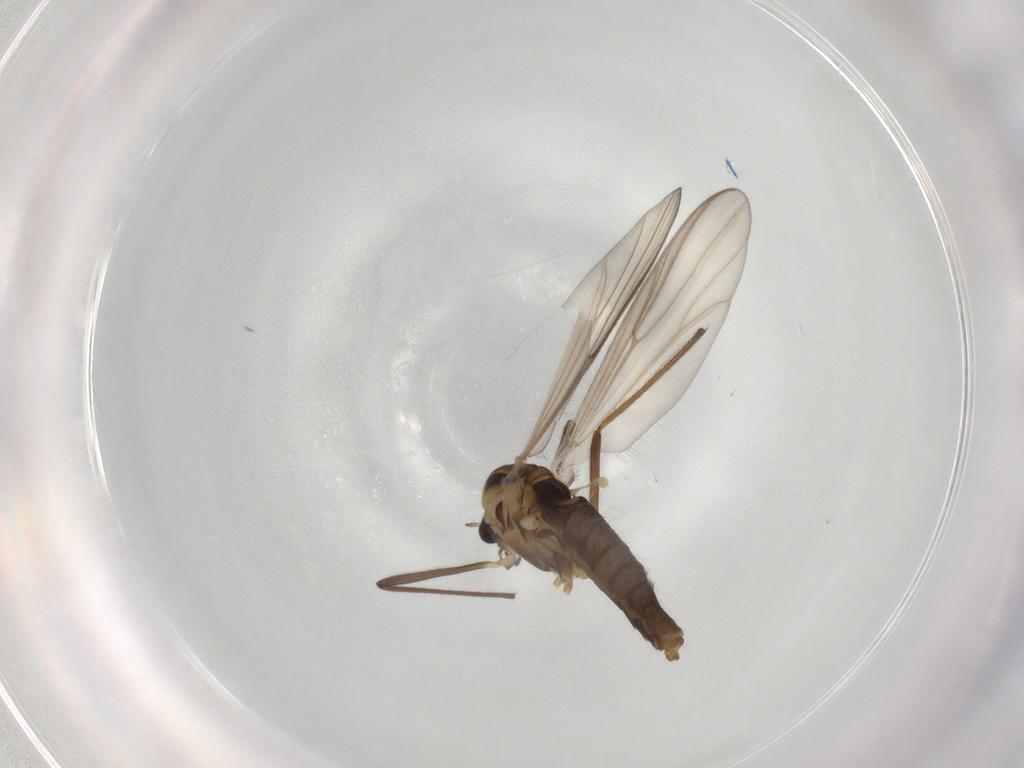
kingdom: Animalia
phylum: Arthropoda
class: Insecta
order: Diptera
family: Chironomidae
